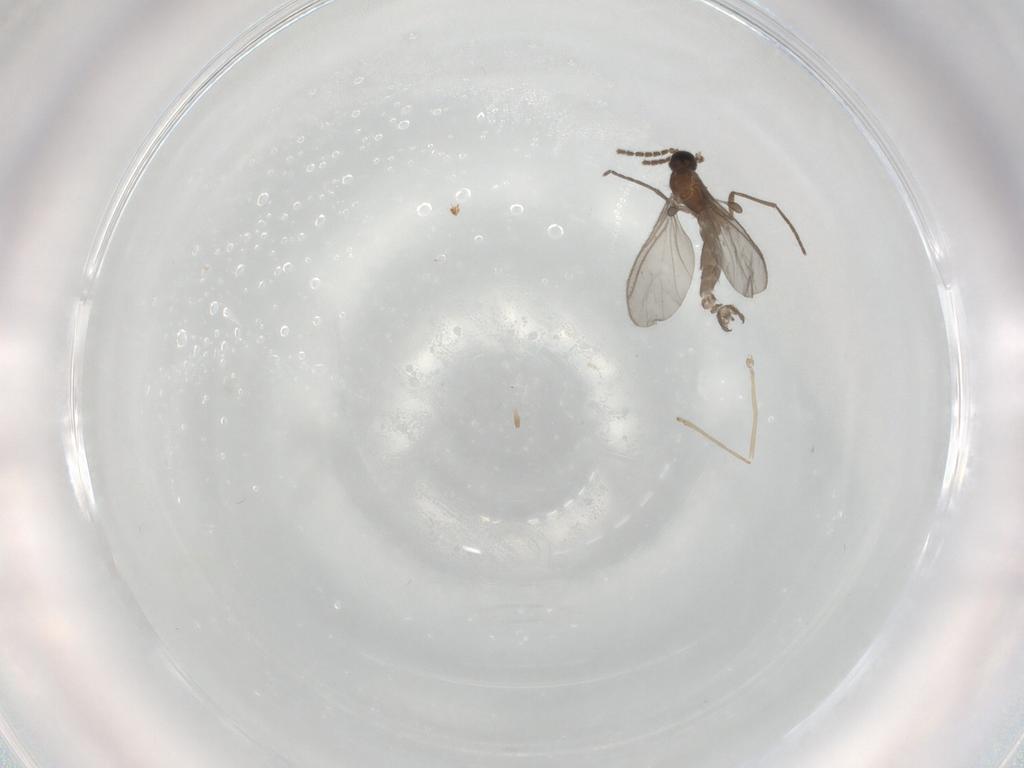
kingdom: Animalia
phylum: Arthropoda
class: Insecta
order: Diptera
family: Sciaridae
